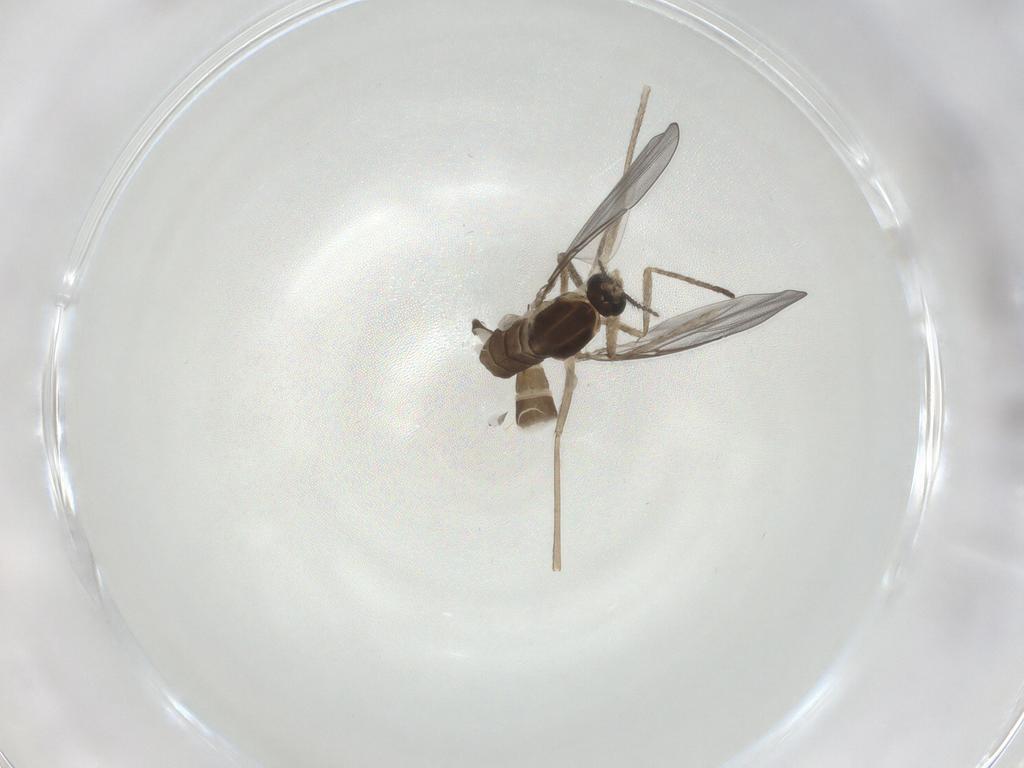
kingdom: Animalia
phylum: Arthropoda
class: Insecta
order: Diptera
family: Cecidomyiidae
